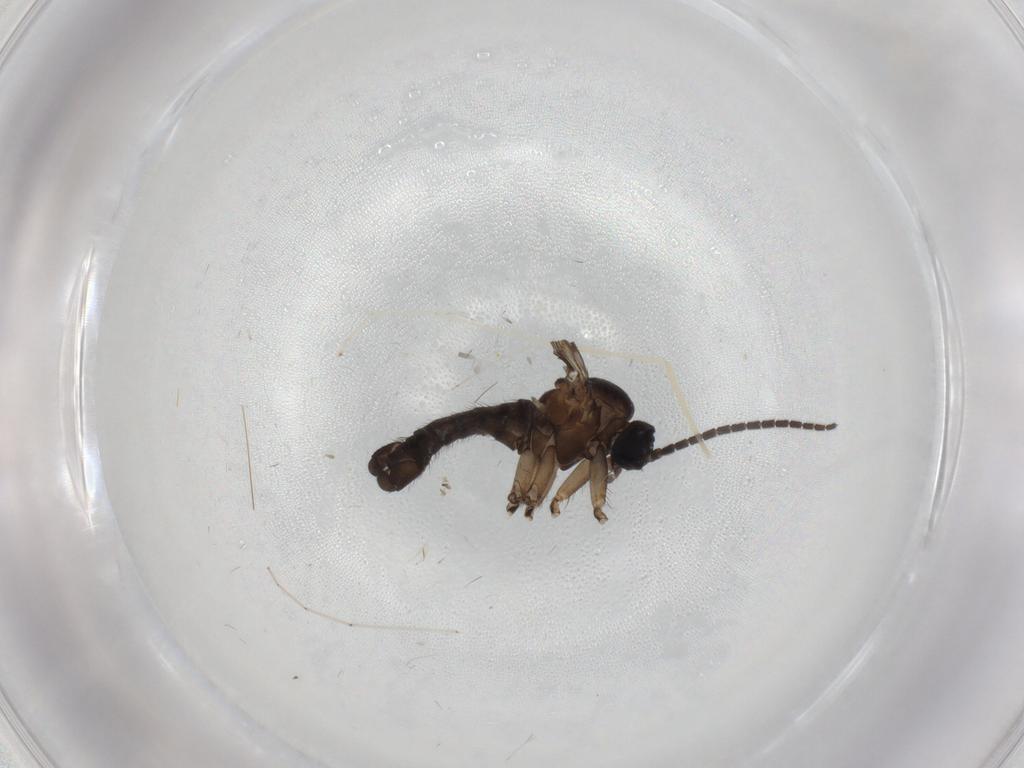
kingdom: Animalia
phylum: Arthropoda
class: Insecta
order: Diptera
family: Sciaridae
